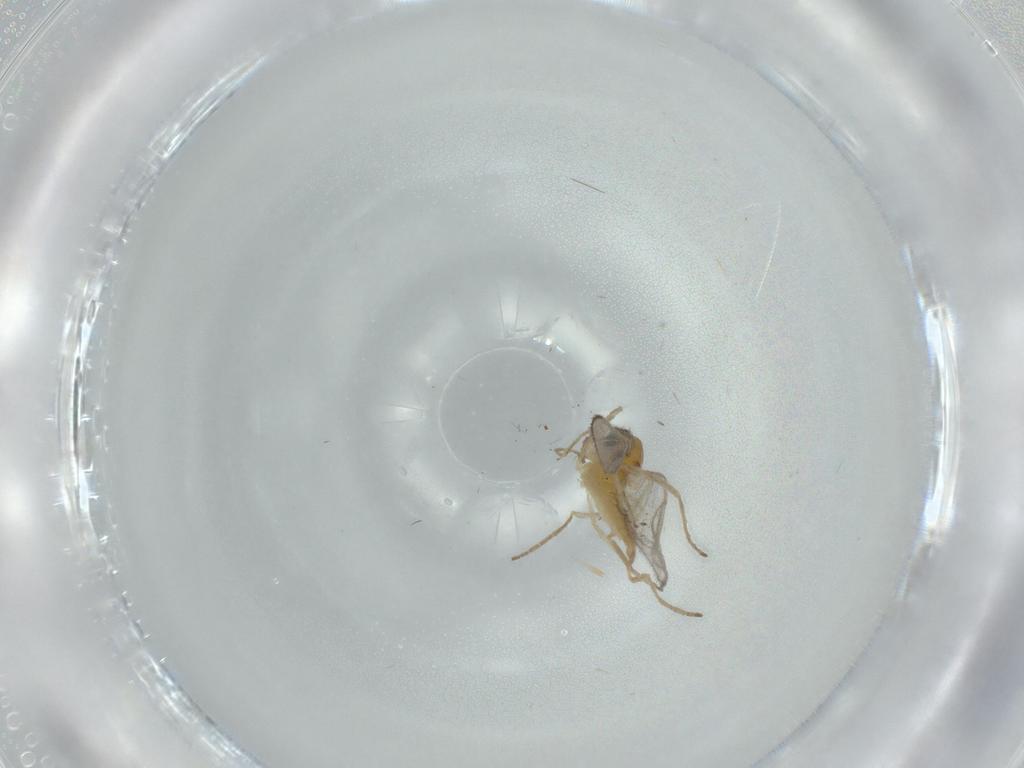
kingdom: Animalia
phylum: Arthropoda
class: Insecta
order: Diptera
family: Cecidomyiidae
